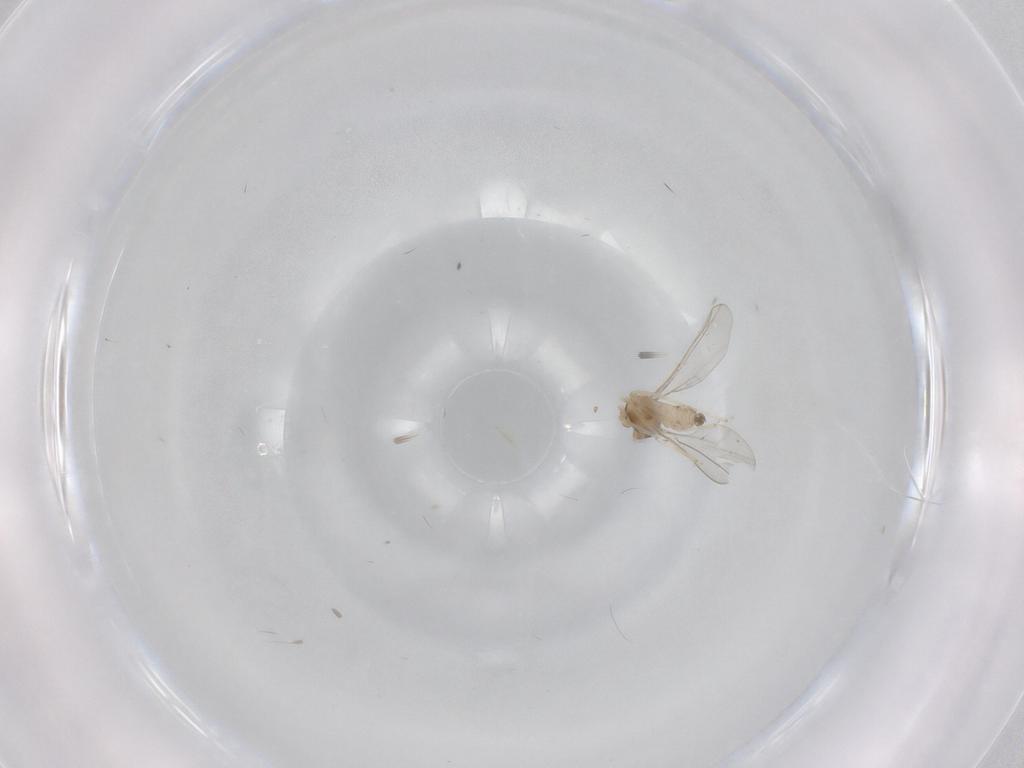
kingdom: Animalia
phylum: Arthropoda
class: Insecta
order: Diptera
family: Cecidomyiidae
